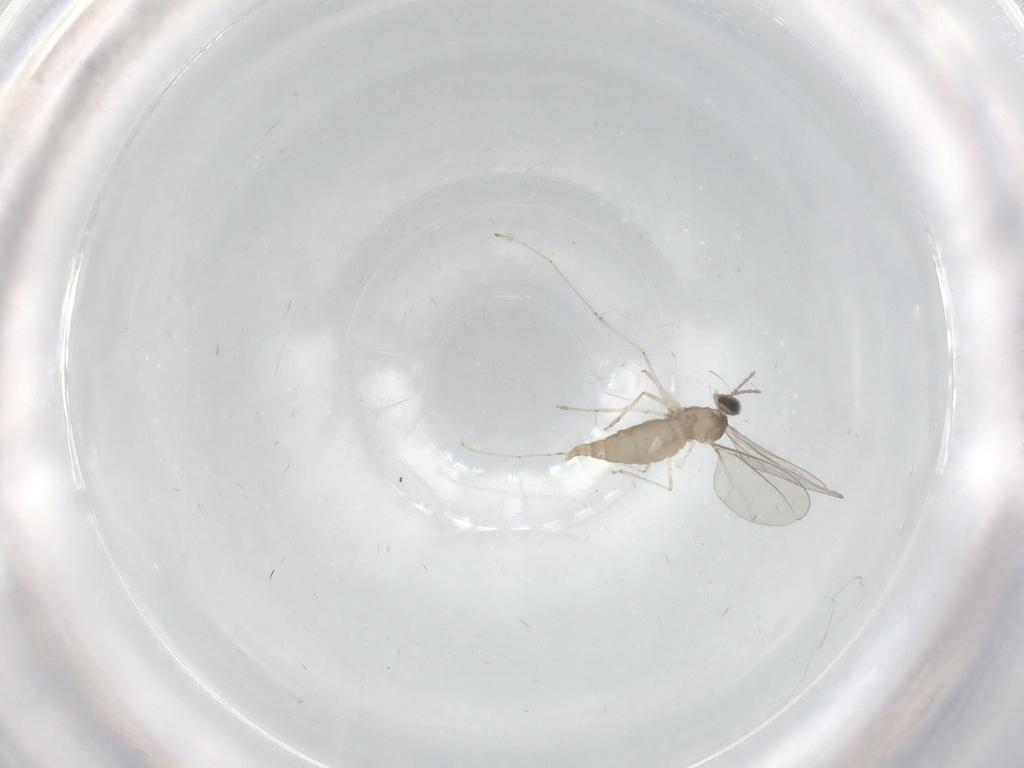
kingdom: Animalia
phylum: Arthropoda
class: Insecta
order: Diptera
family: Cecidomyiidae
